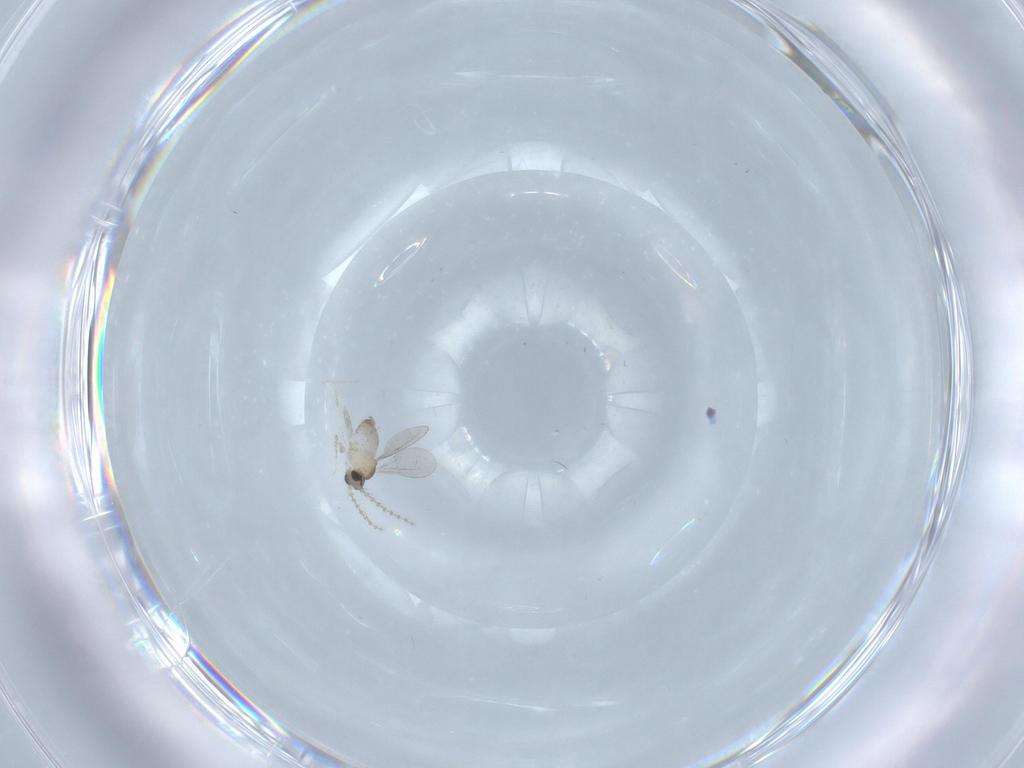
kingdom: Animalia
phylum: Arthropoda
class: Insecta
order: Diptera
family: Cecidomyiidae
